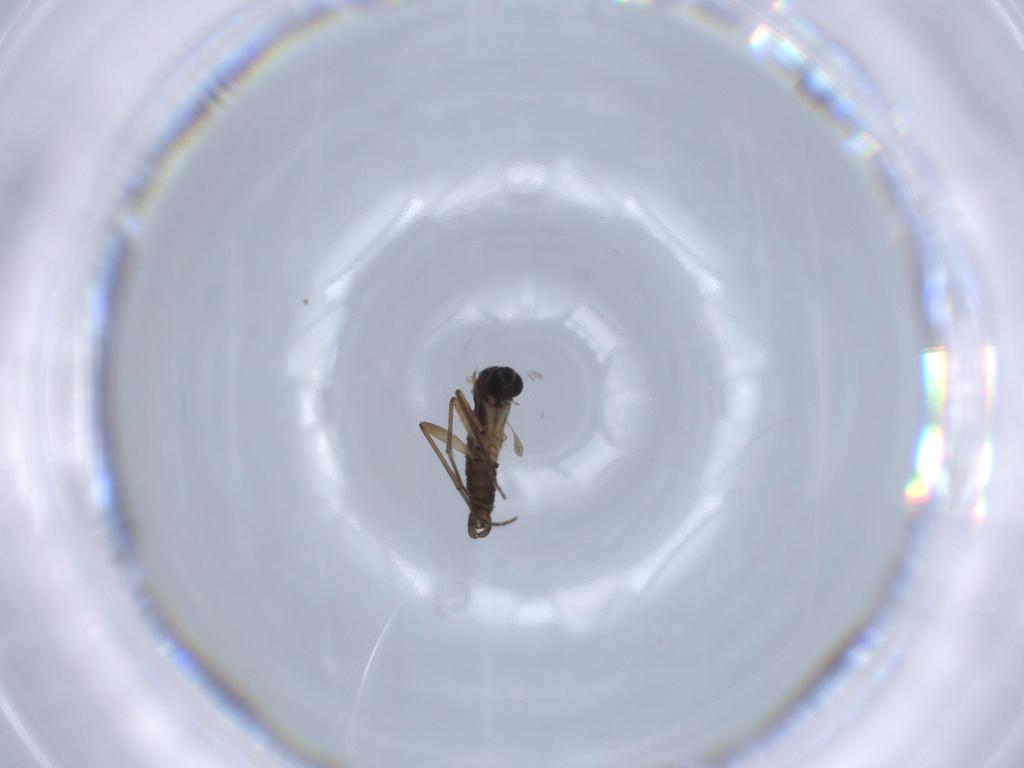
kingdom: Animalia
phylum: Arthropoda
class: Insecta
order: Diptera
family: Sciaridae
